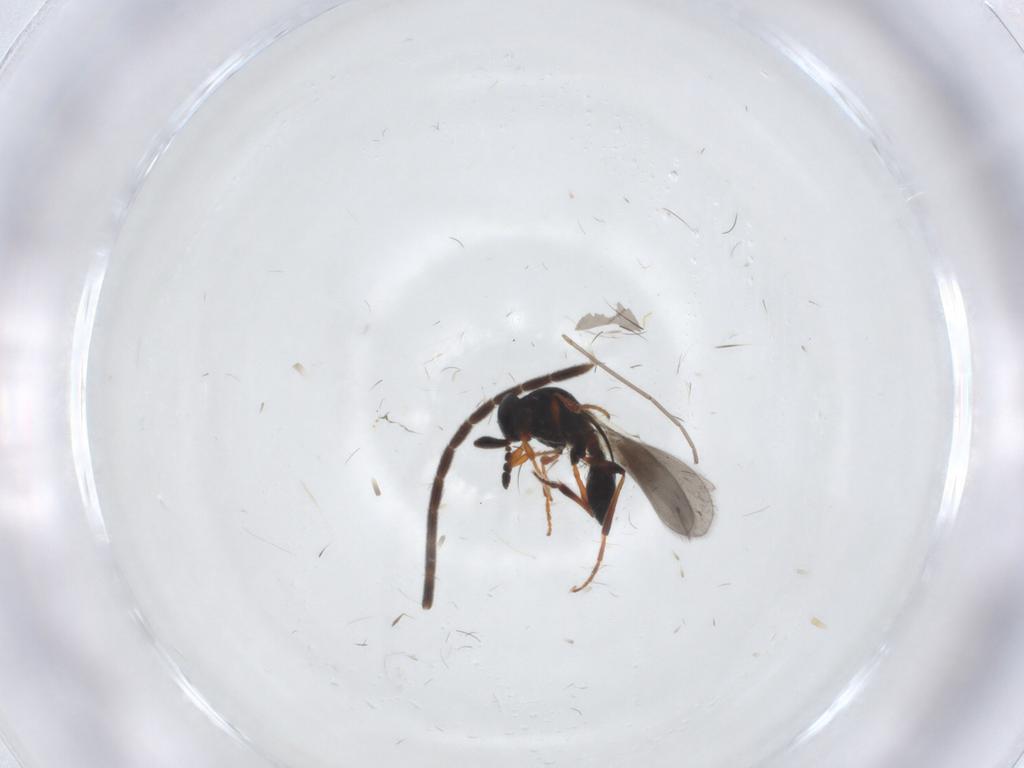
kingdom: Animalia
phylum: Arthropoda
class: Insecta
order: Hymenoptera
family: Formicidae
